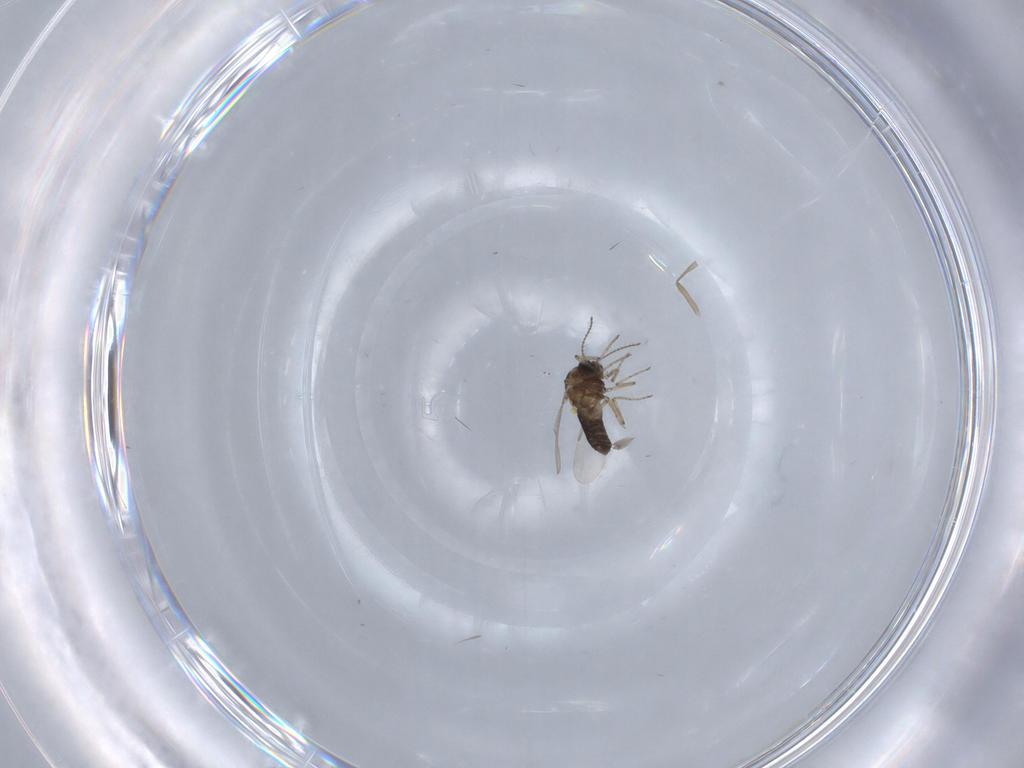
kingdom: Animalia
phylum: Arthropoda
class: Insecta
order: Diptera
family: Ceratopogonidae
